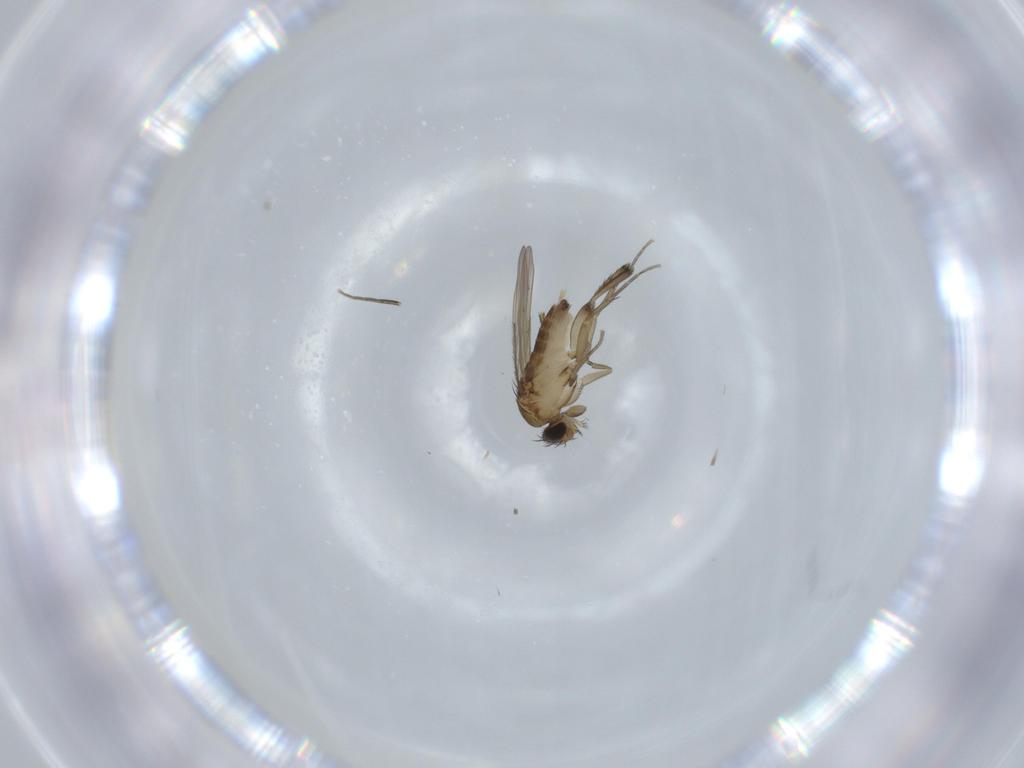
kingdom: Animalia
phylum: Arthropoda
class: Insecta
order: Diptera
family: Phoridae
